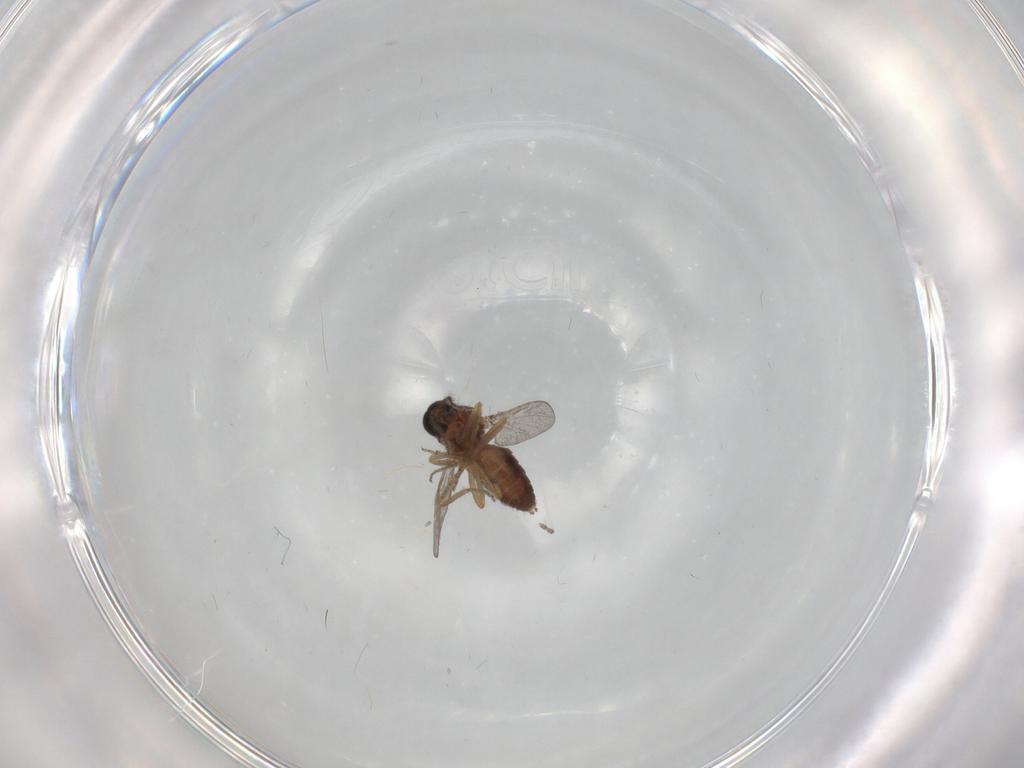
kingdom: Animalia
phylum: Arthropoda
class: Insecta
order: Diptera
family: Ceratopogonidae
